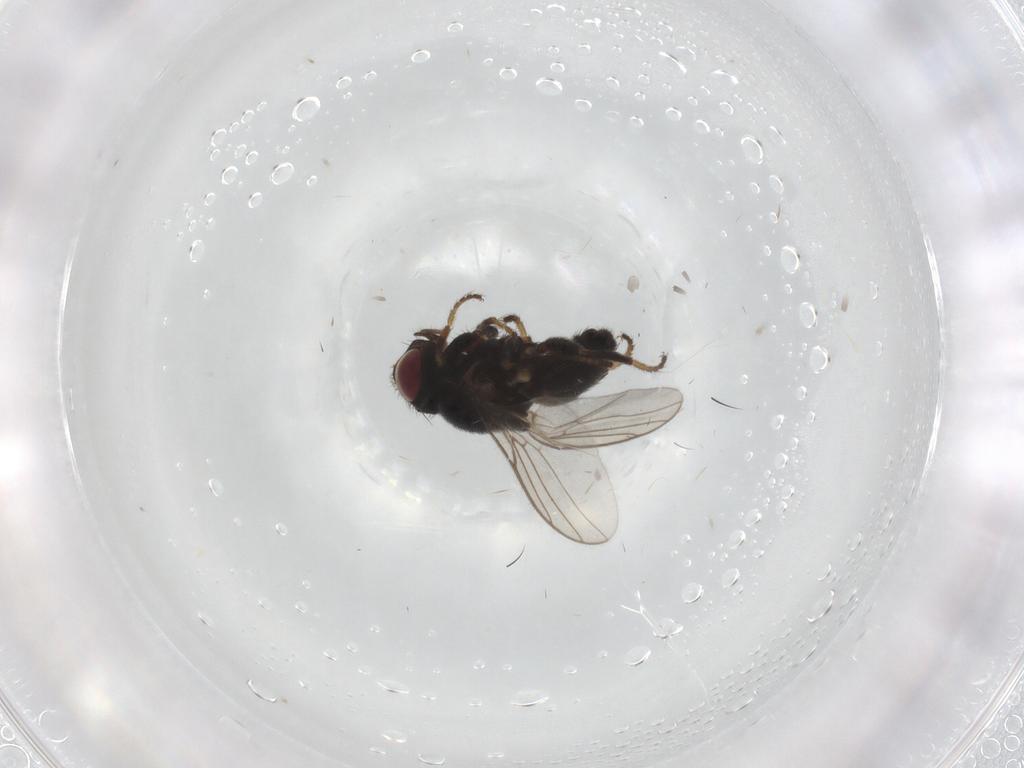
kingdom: Animalia
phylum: Arthropoda
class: Insecta
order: Diptera
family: Chloropidae
